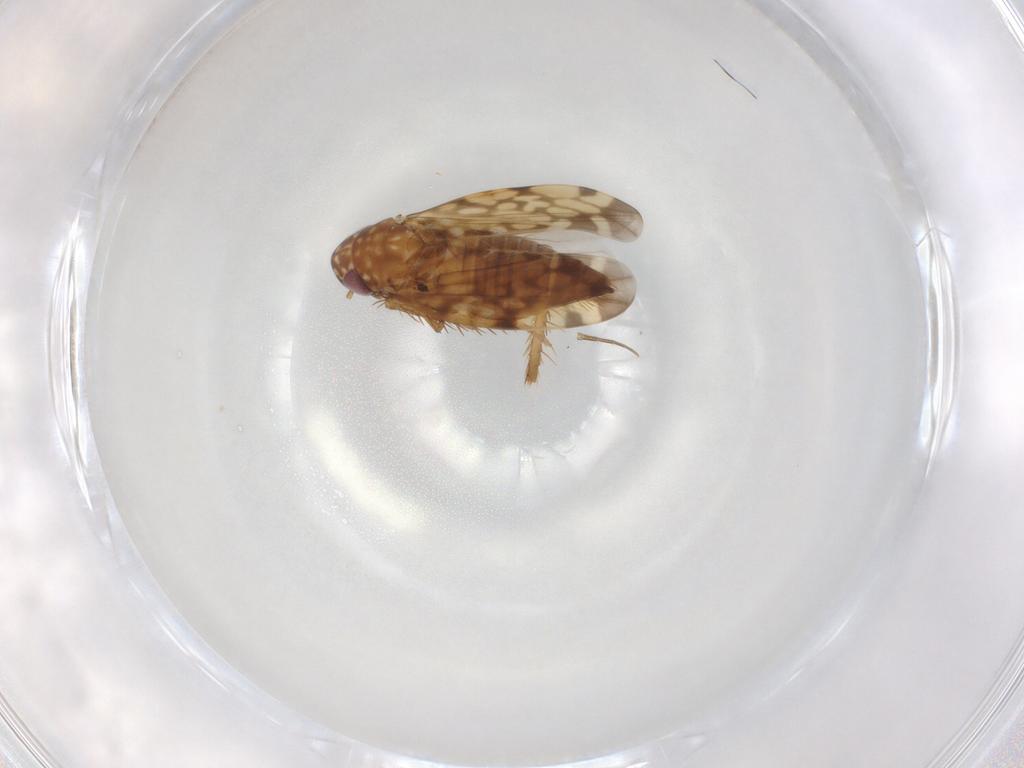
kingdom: Animalia
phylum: Arthropoda
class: Insecta
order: Hemiptera
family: Cicadellidae
